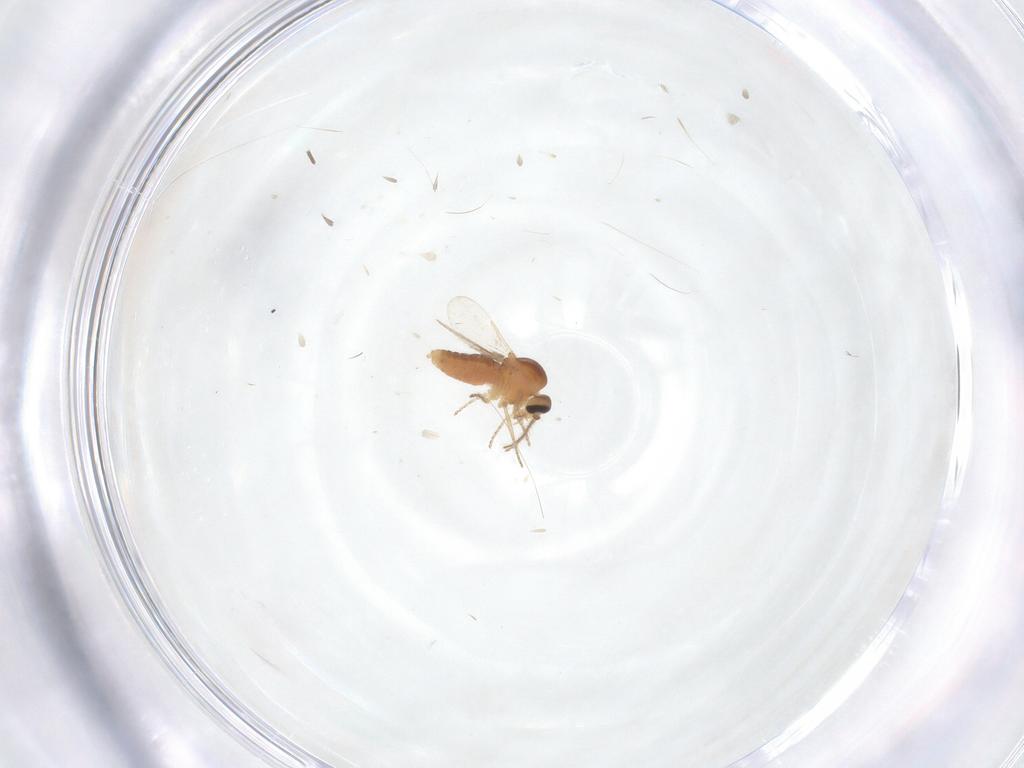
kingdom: Animalia
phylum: Arthropoda
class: Insecta
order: Diptera
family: Cecidomyiidae
